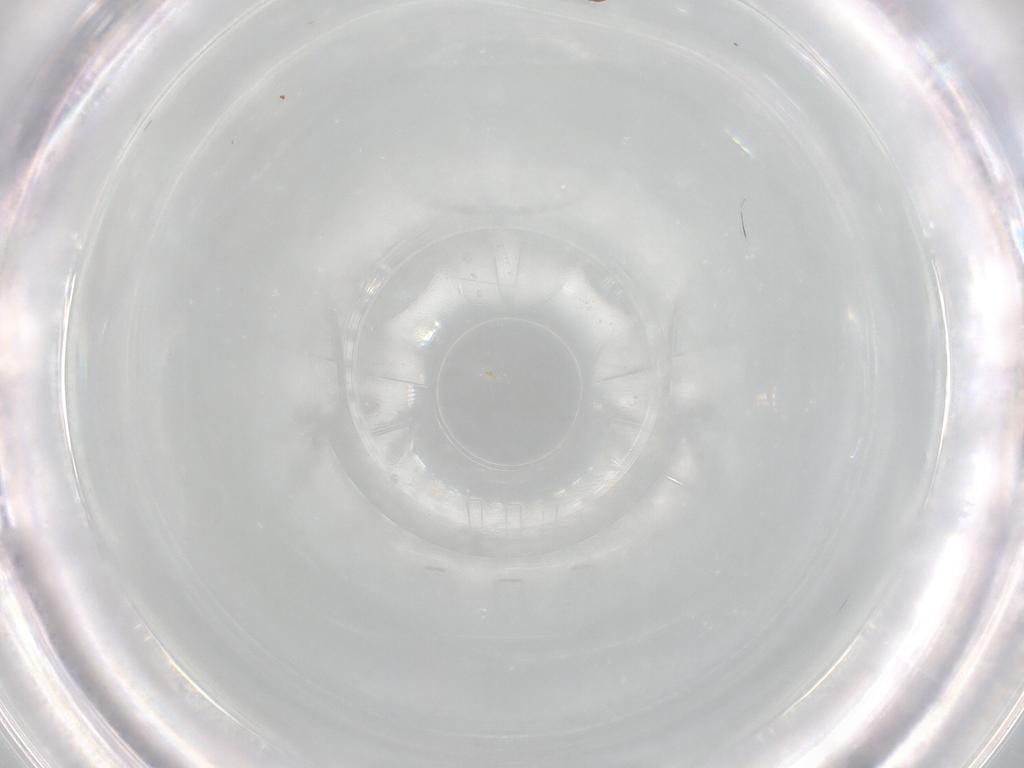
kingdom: Animalia
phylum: Arthropoda
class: Collembola
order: Entomobryomorpha
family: Entomobryidae
